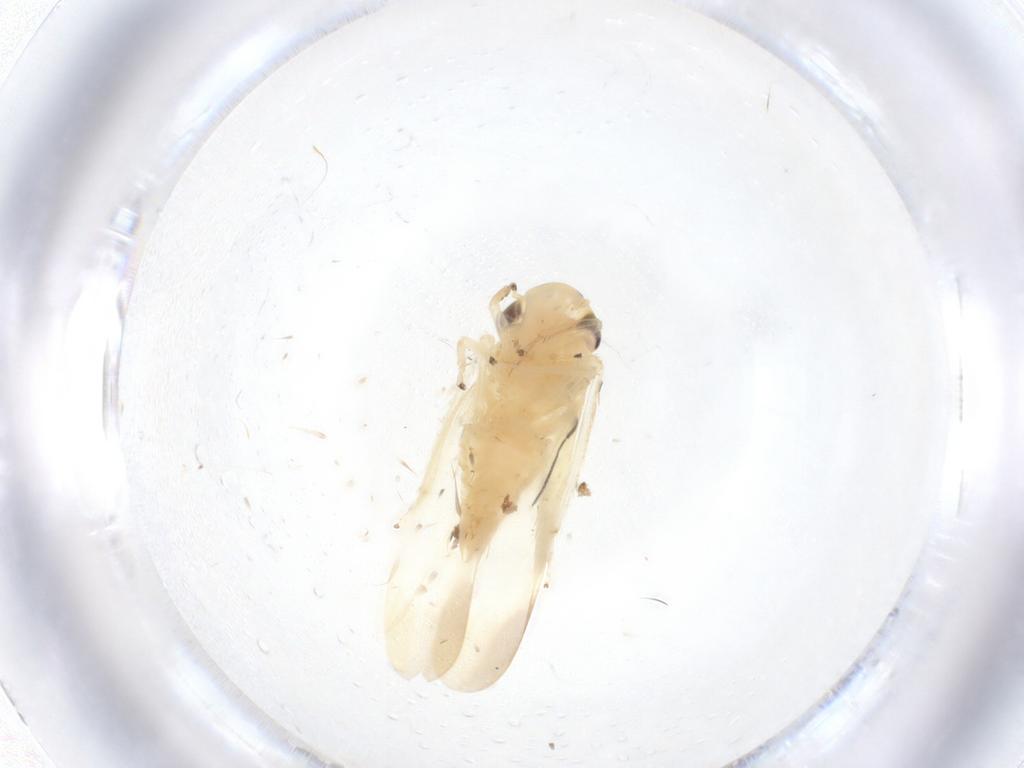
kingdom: Animalia
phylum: Arthropoda
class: Insecta
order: Hemiptera
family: Cicadellidae
